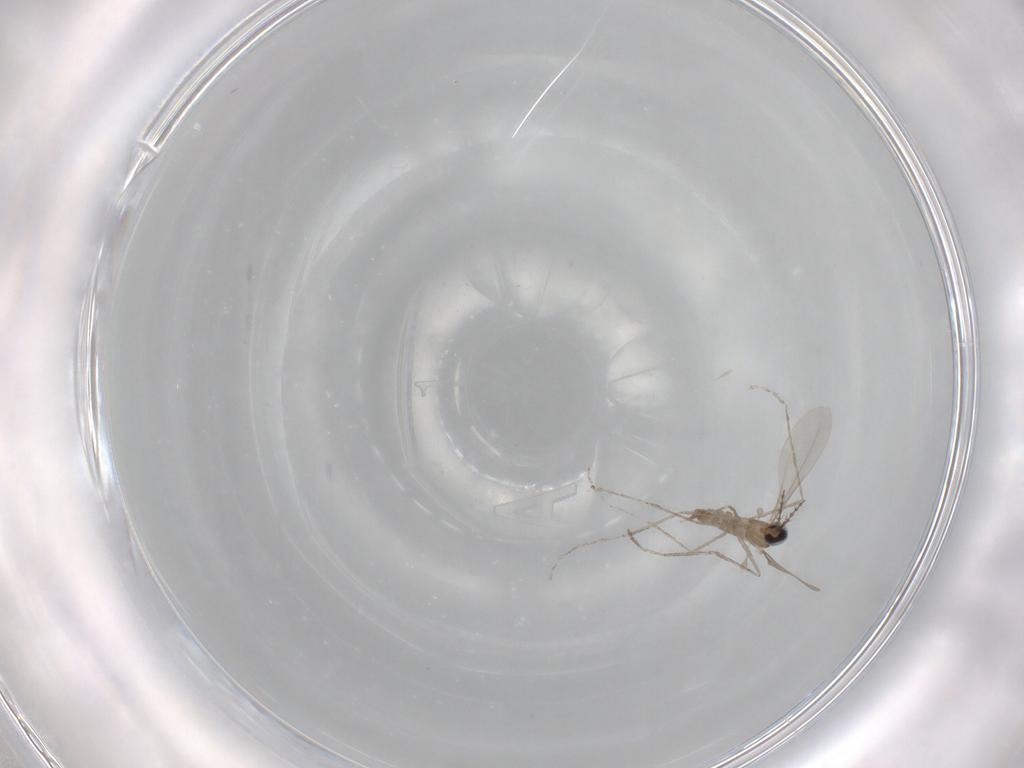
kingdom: Animalia
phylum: Arthropoda
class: Insecta
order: Diptera
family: Cecidomyiidae
